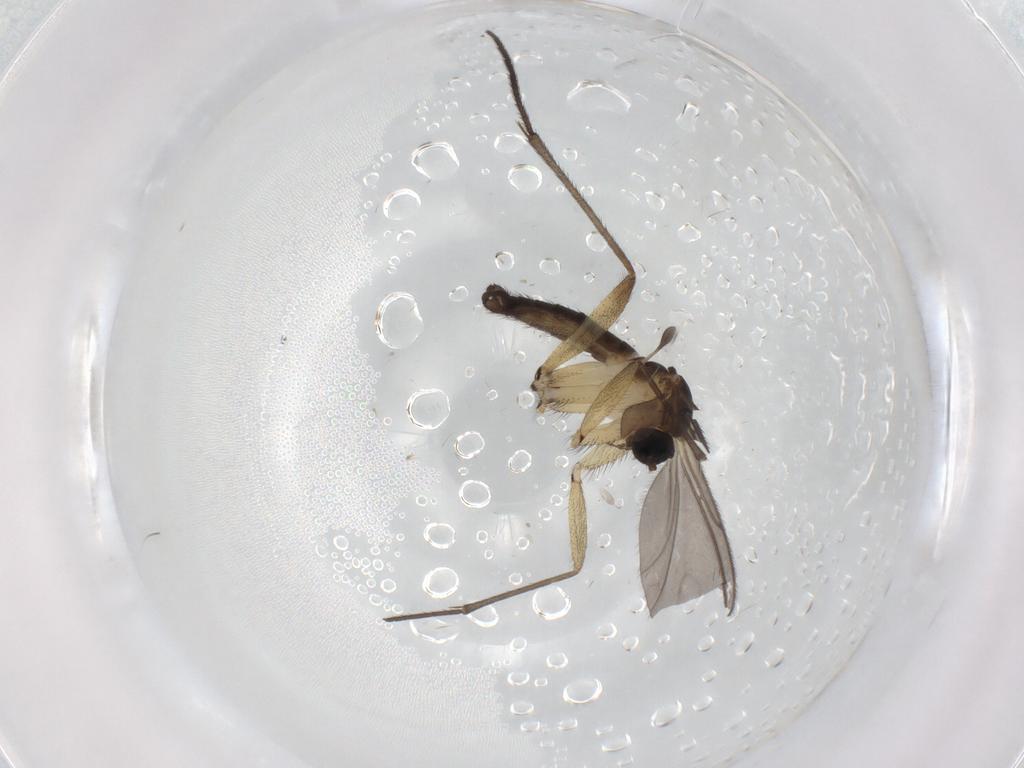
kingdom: Animalia
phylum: Arthropoda
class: Insecta
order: Diptera
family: Sciaridae
